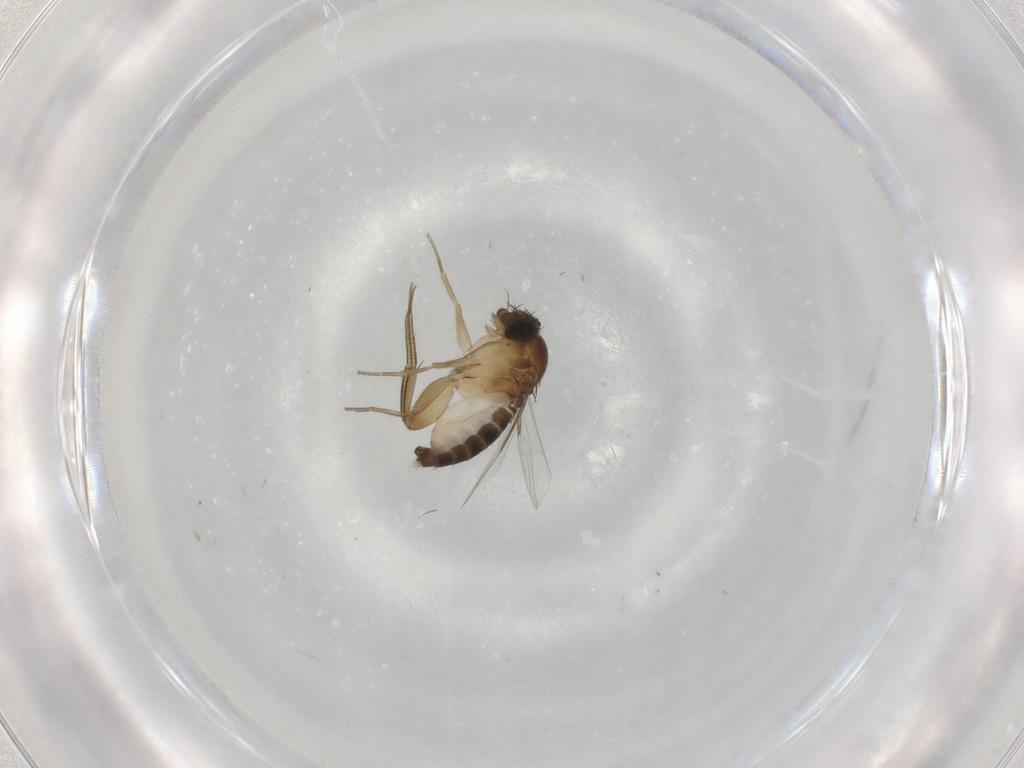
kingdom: Animalia
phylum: Arthropoda
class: Insecta
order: Diptera
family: Phoridae
